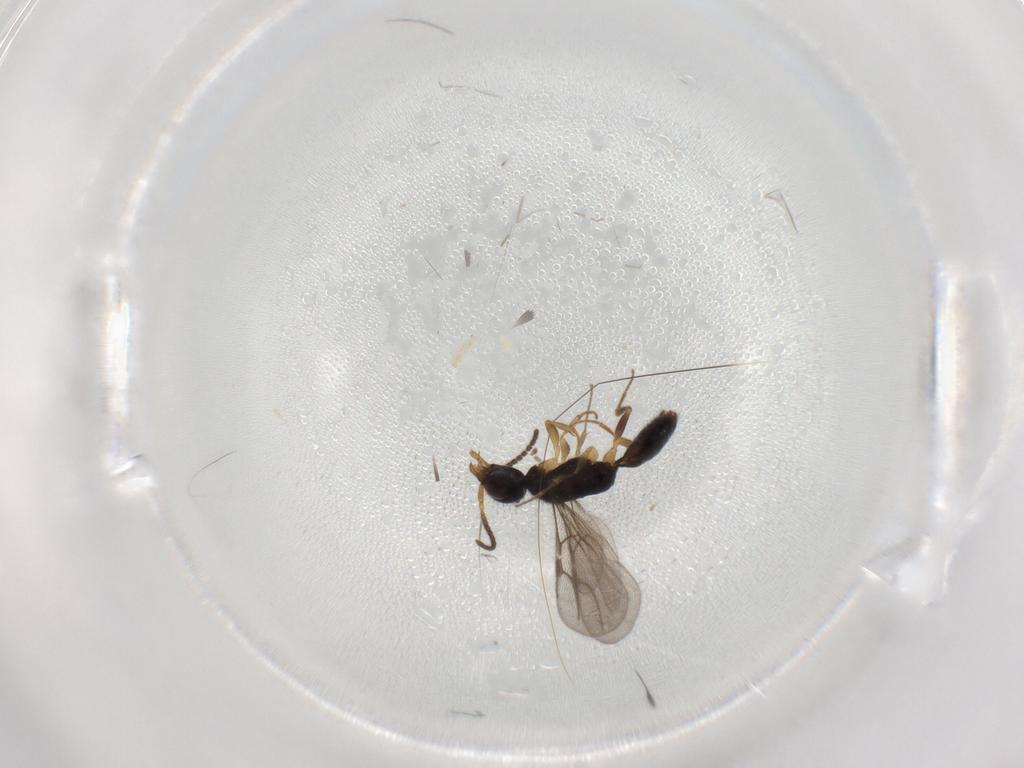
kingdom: Animalia
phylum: Arthropoda
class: Insecta
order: Hymenoptera
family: Bethylidae
